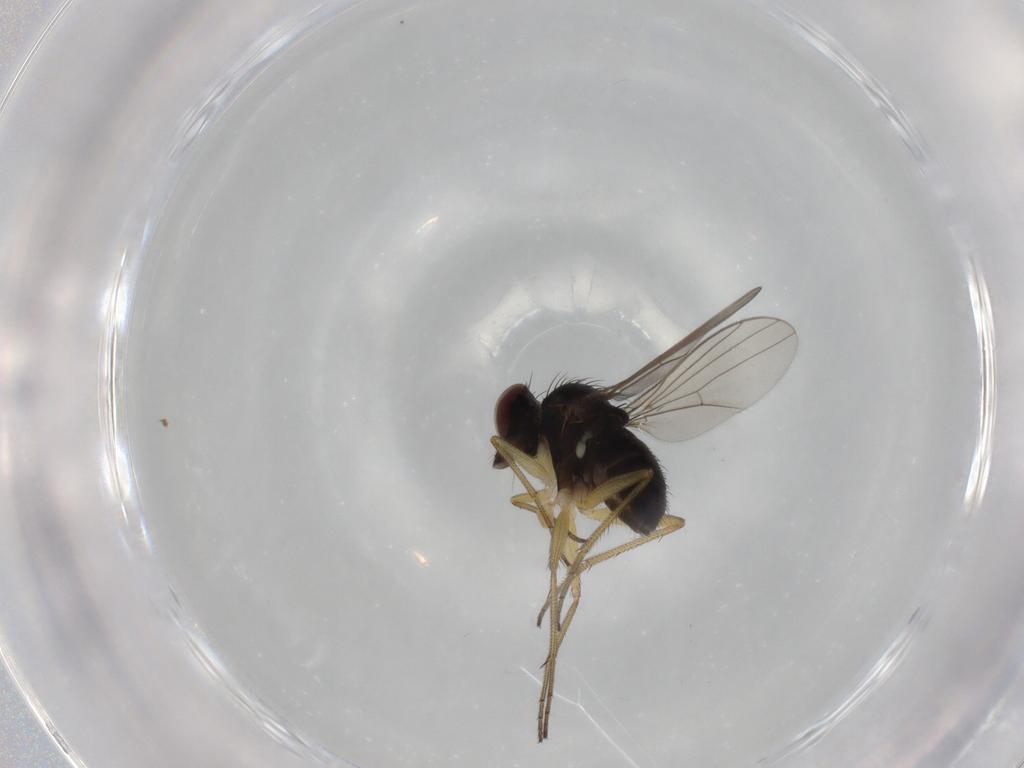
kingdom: Animalia
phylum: Arthropoda
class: Insecta
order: Diptera
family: Dolichopodidae
